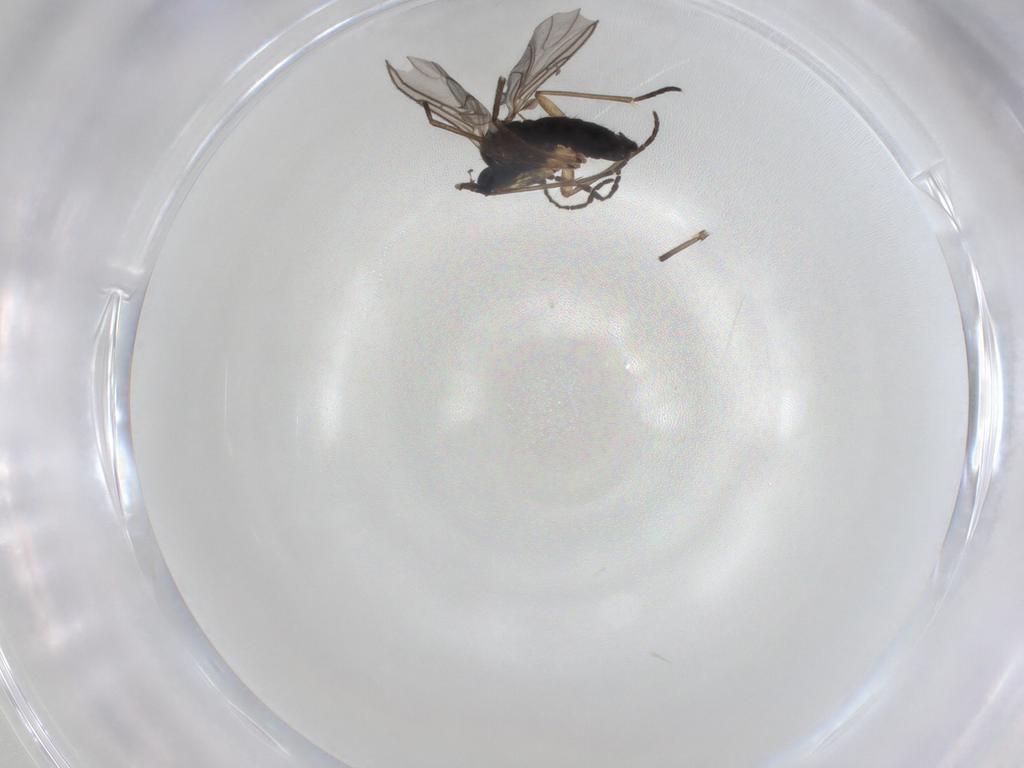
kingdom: Animalia
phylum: Arthropoda
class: Insecta
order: Diptera
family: Sciaridae
